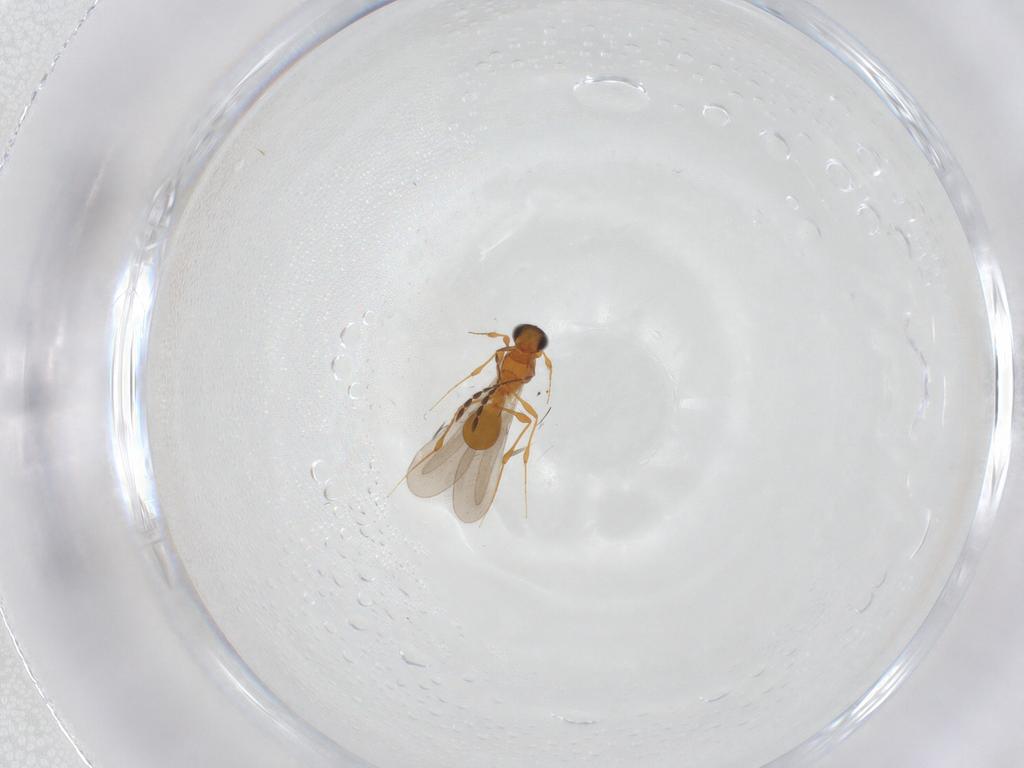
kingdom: Animalia
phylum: Arthropoda
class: Insecta
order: Hymenoptera
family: Platygastridae
